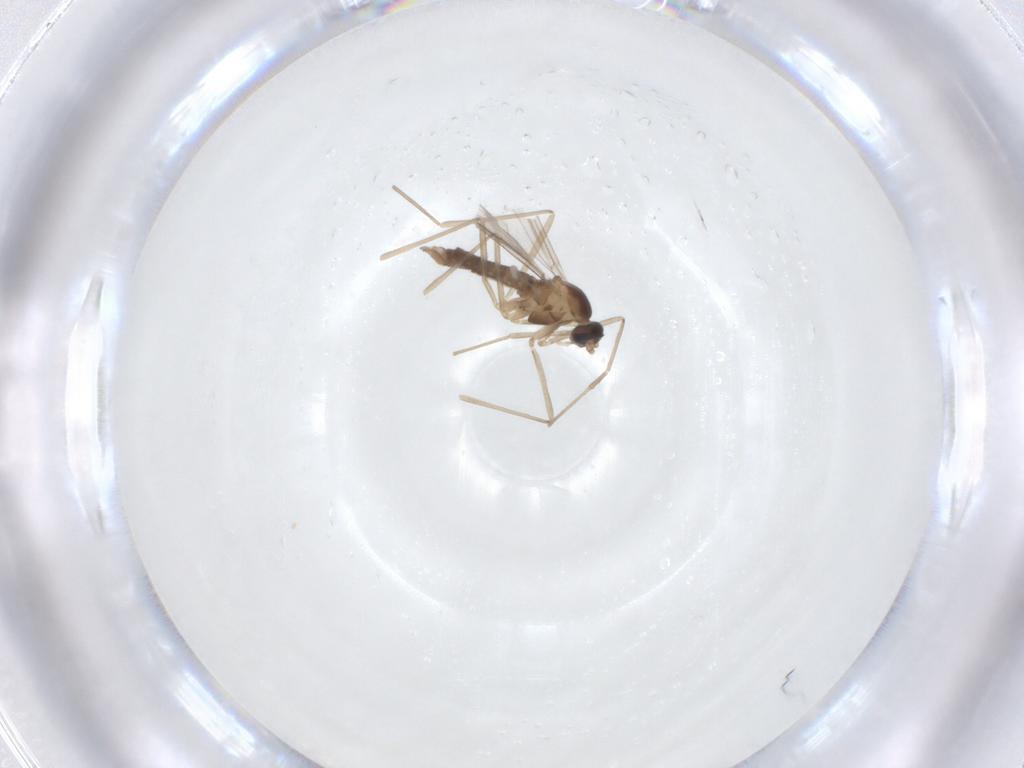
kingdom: Animalia
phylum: Arthropoda
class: Insecta
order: Diptera
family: Cecidomyiidae
